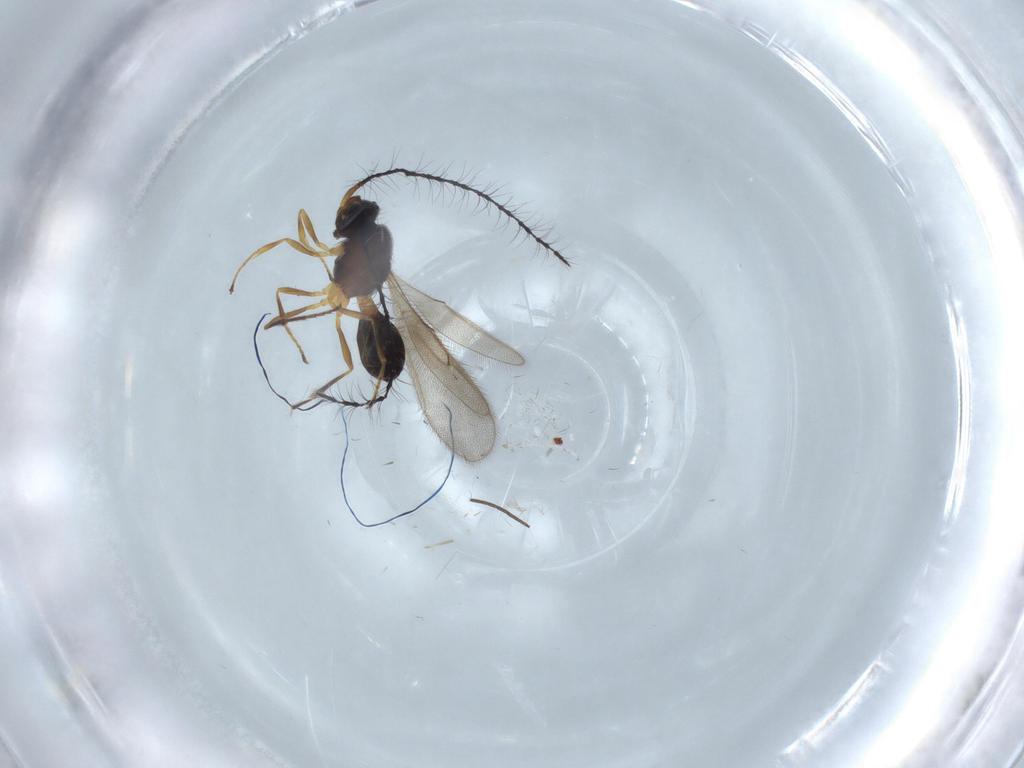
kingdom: Animalia
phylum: Arthropoda
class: Insecta
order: Hymenoptera
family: Scelionidae
